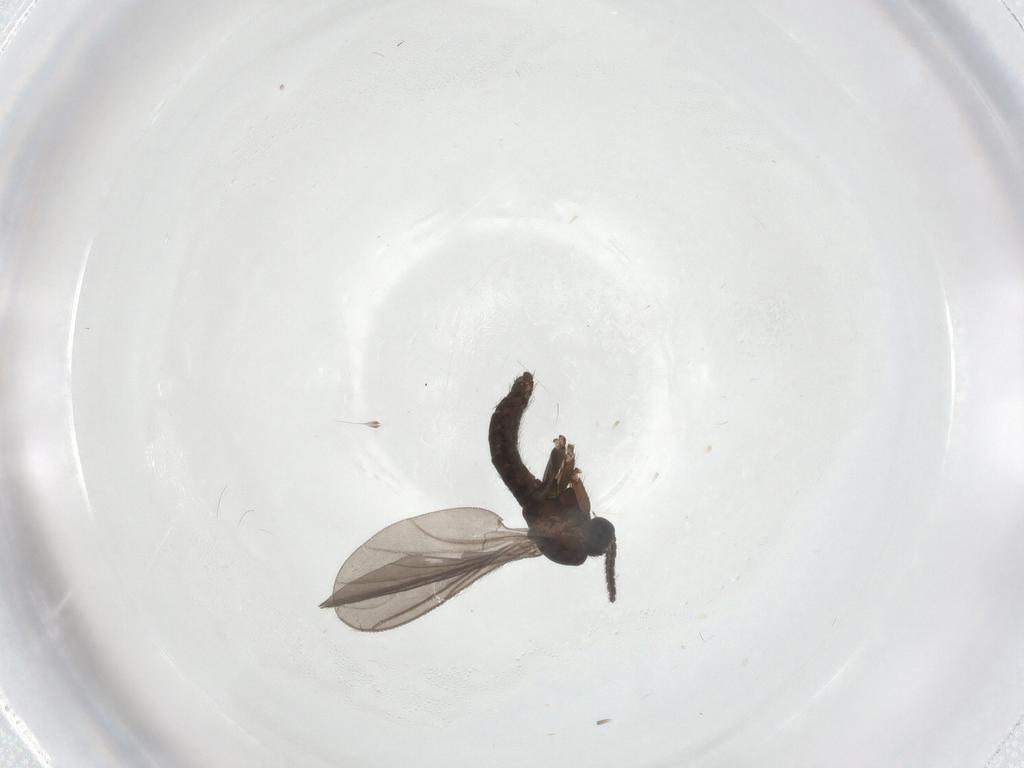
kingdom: Animalia
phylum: Arthropoda
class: Insecta
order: Diptera
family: Sciaridae
